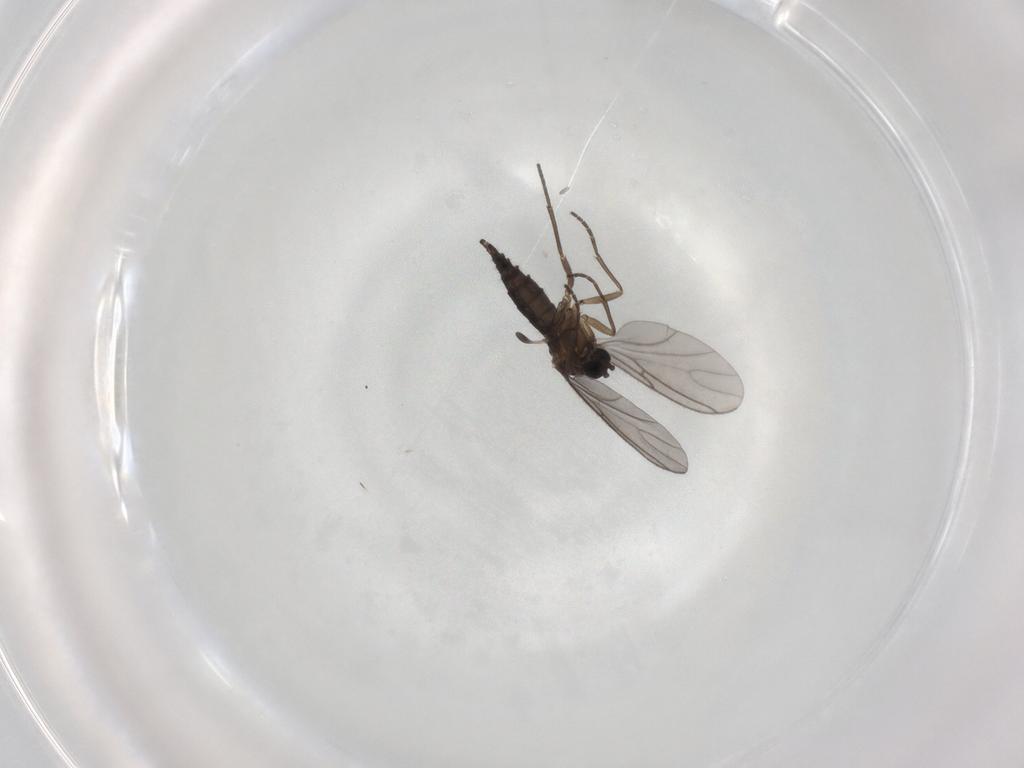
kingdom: Animalia
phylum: Arthropoda
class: Insecta
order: Diptera
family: Sciaridae
